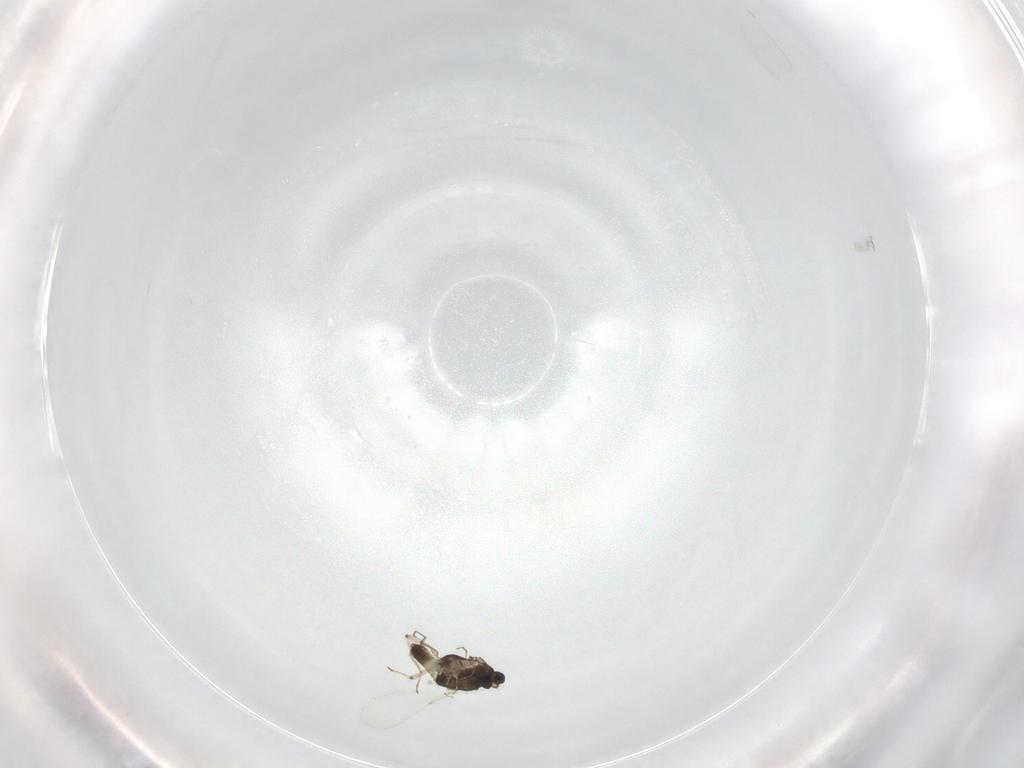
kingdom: Animalia
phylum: Arthropoda
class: Insecta
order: Diptera
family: Chironomidae
